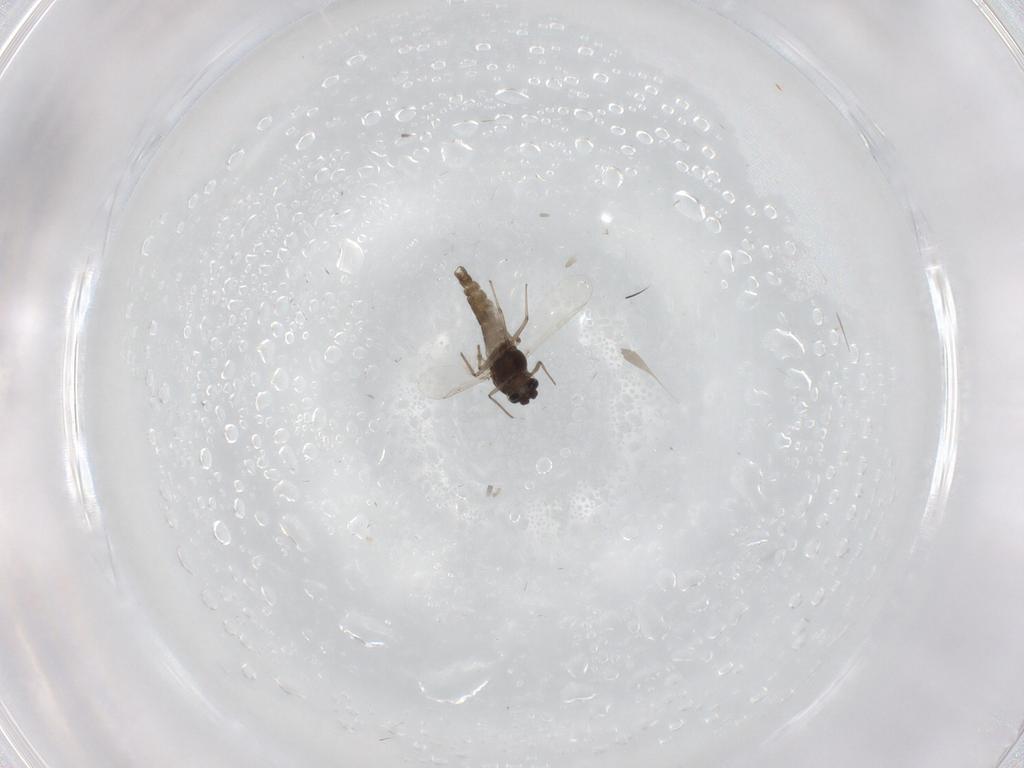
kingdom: Animalia
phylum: Arthropoda
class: Insecta
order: Diptera
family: Chironomidae
